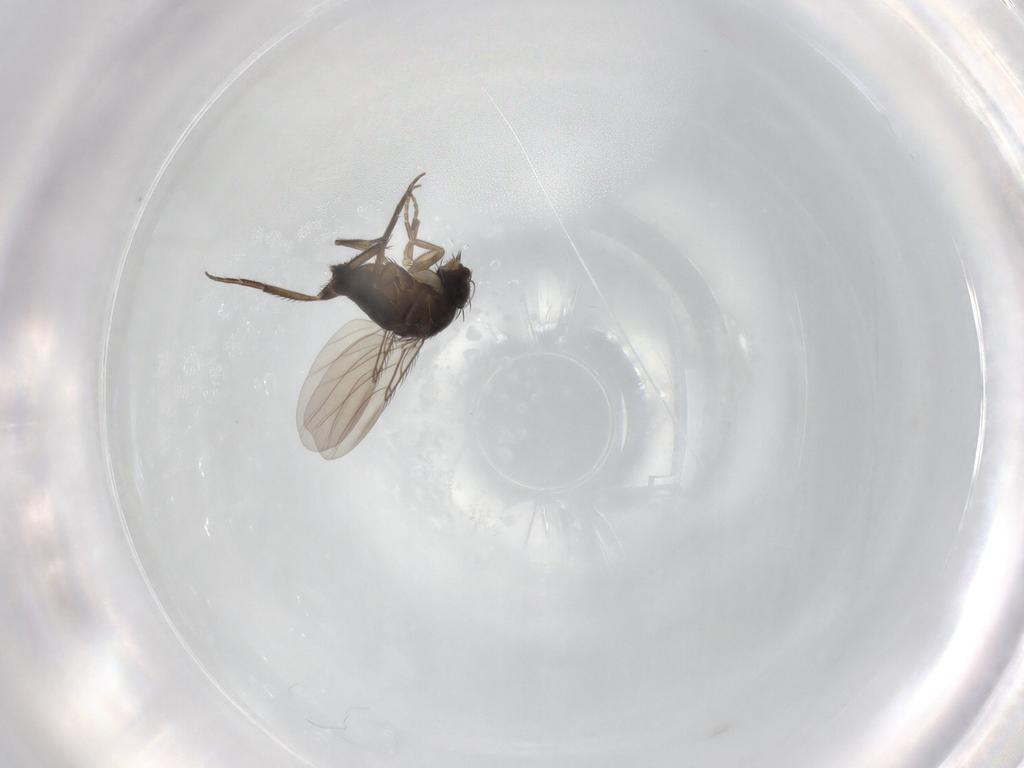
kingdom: Animalia
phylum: Arthropoda
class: Insecta
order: Diptera
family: Phoridae
